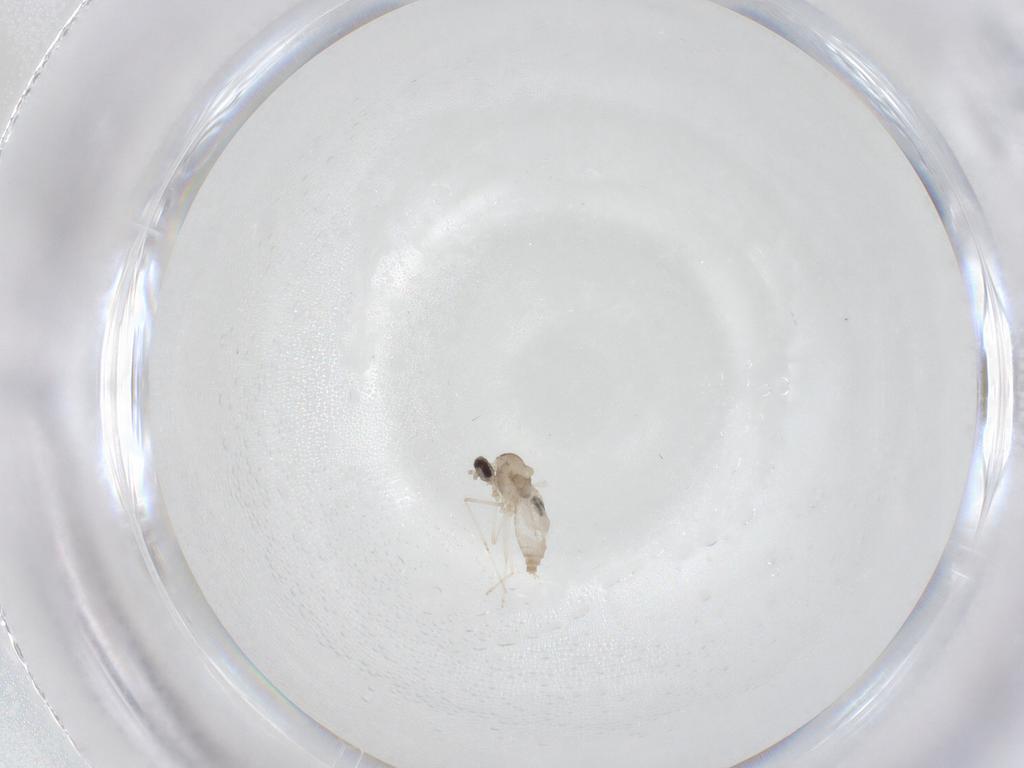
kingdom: Animalia
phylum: Arthropoda
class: Insecta
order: Diptera
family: Cecidomyiidae
